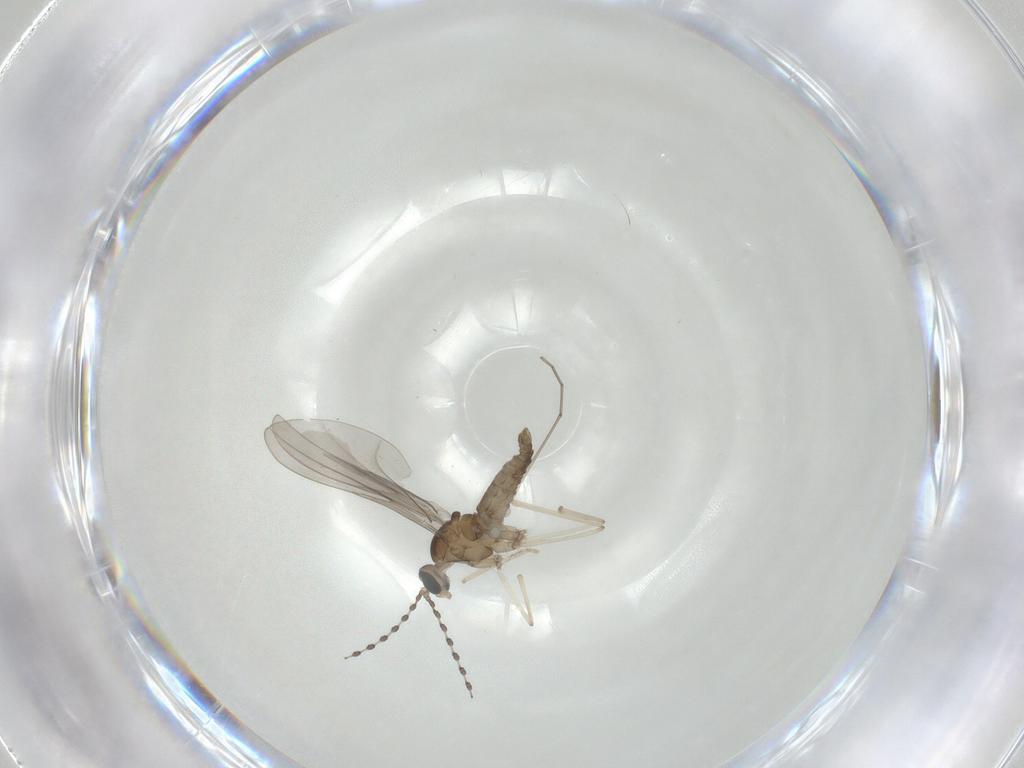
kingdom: Animalia
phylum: Arthropoda
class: Insecta
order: Diptera
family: Cecidomyiidae
